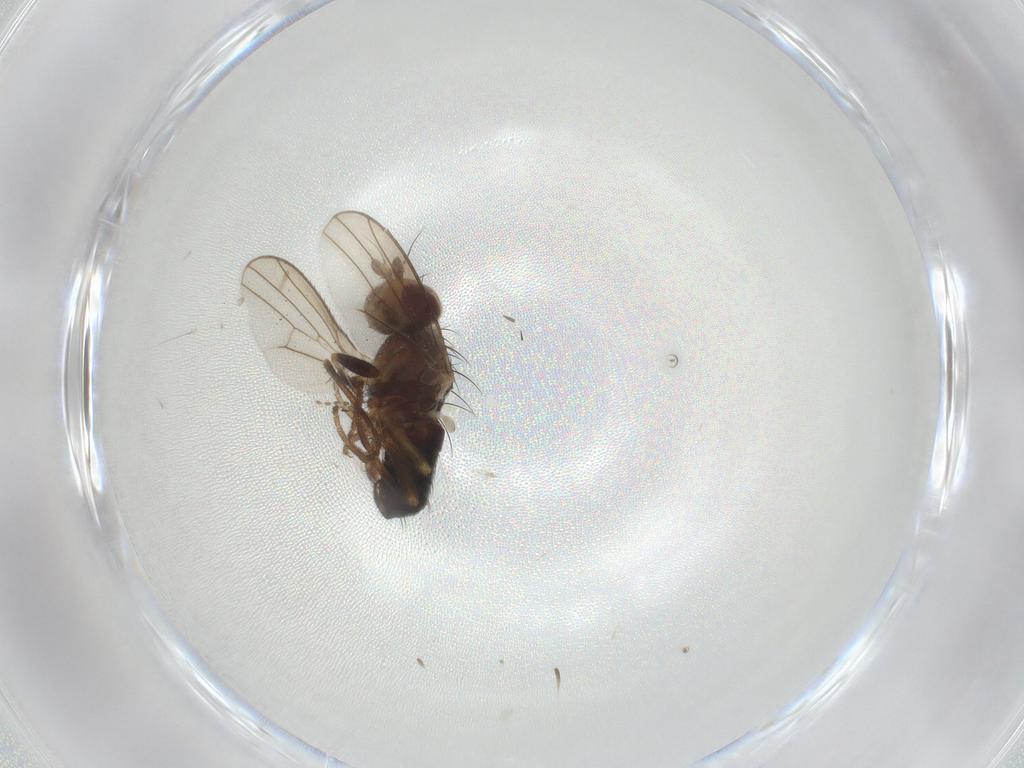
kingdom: Animalia
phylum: Arthropoda
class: Insecta
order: Diptera
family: Heleomyzidae
